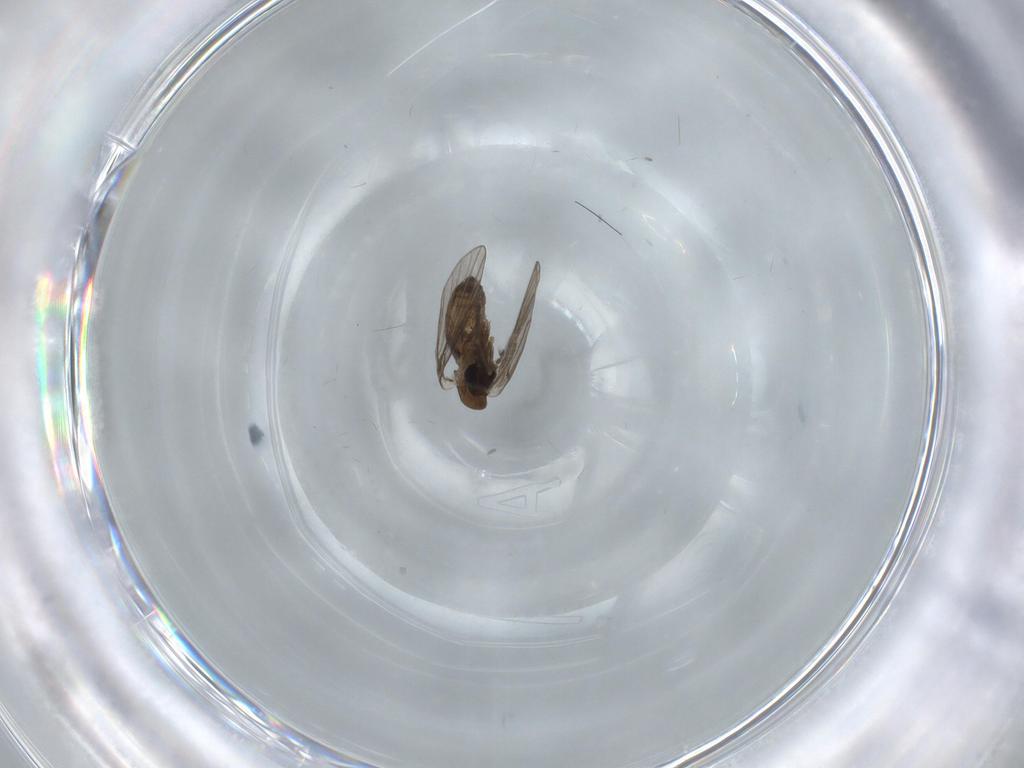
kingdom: Animalia
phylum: Arthropoda
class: Insecta
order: Diptera
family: Psychodidae
